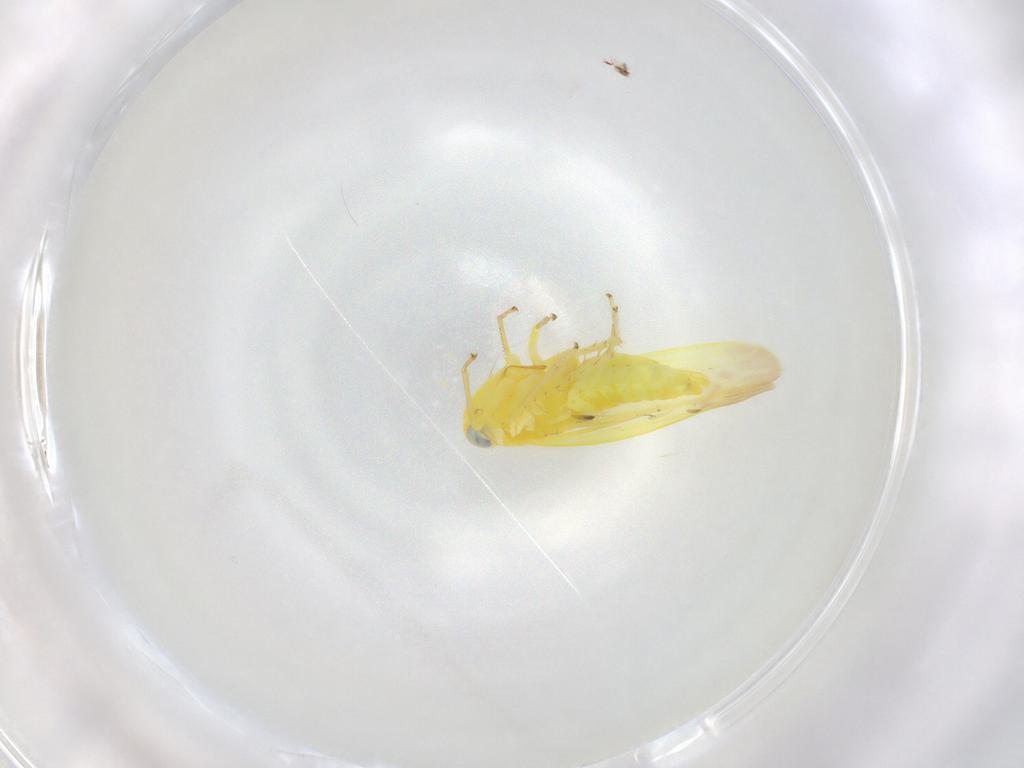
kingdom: Animalia
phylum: Arthropoda
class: Insecta
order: Hemiptera
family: Cicadellidae
